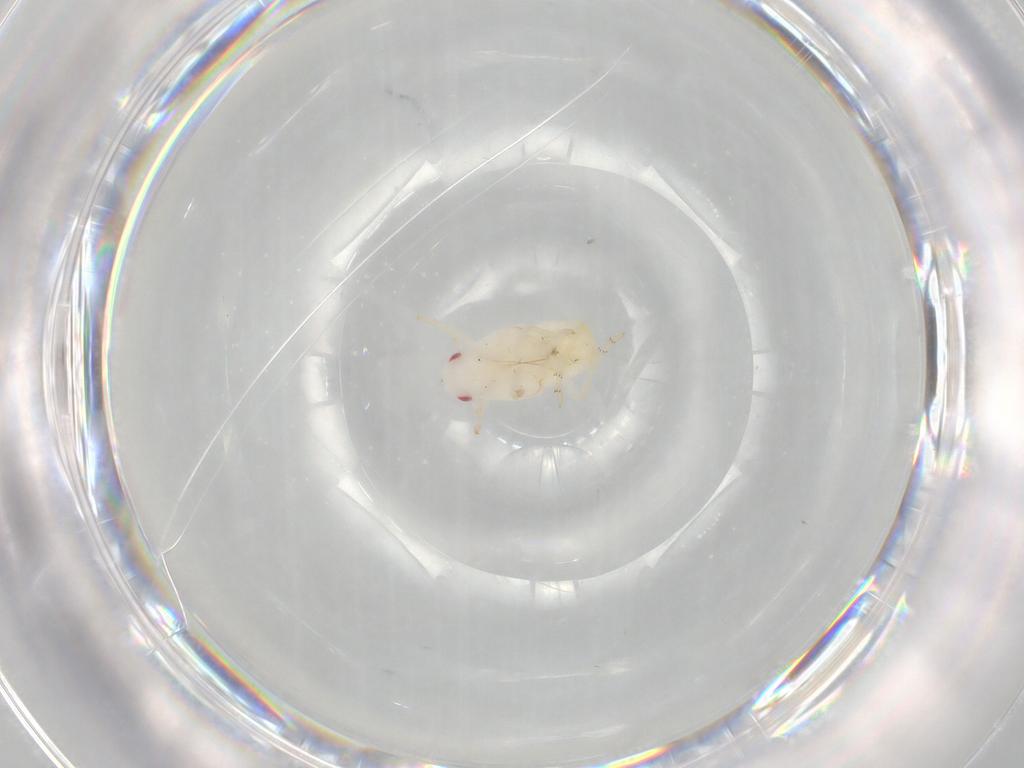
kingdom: Animalia
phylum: Arthropoda
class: Insecta
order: Hemiptera
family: Flatidae
